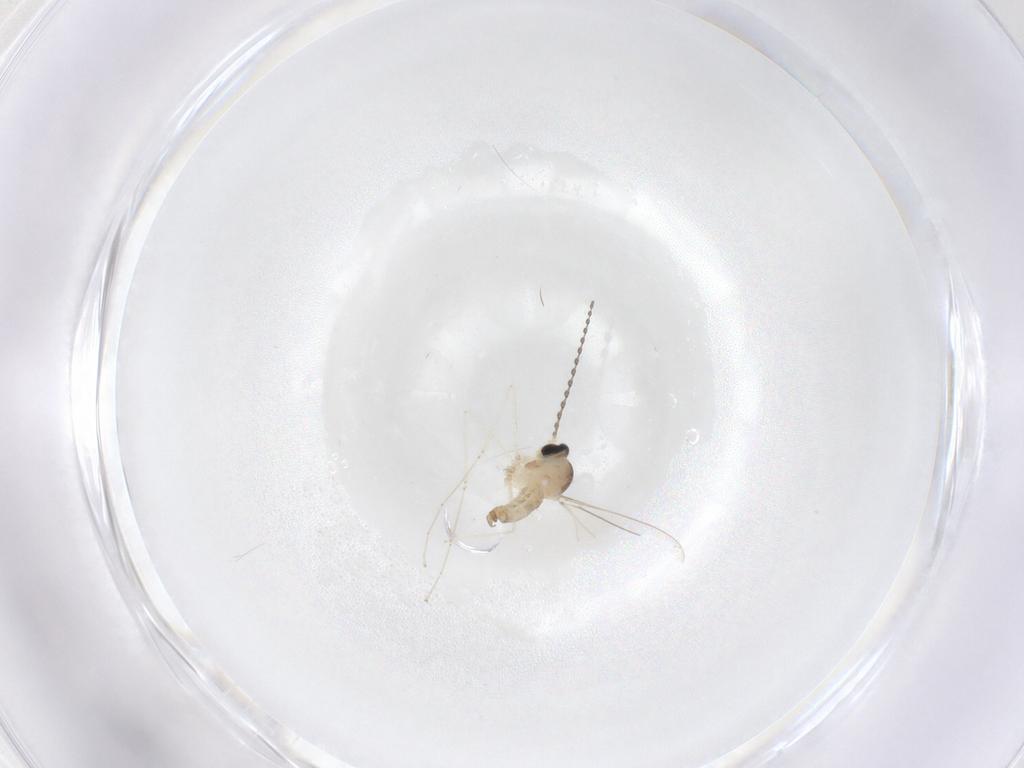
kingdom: Animalia
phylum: Arthropoda
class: Insecta
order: Diptera
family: Cecidomyiidae
